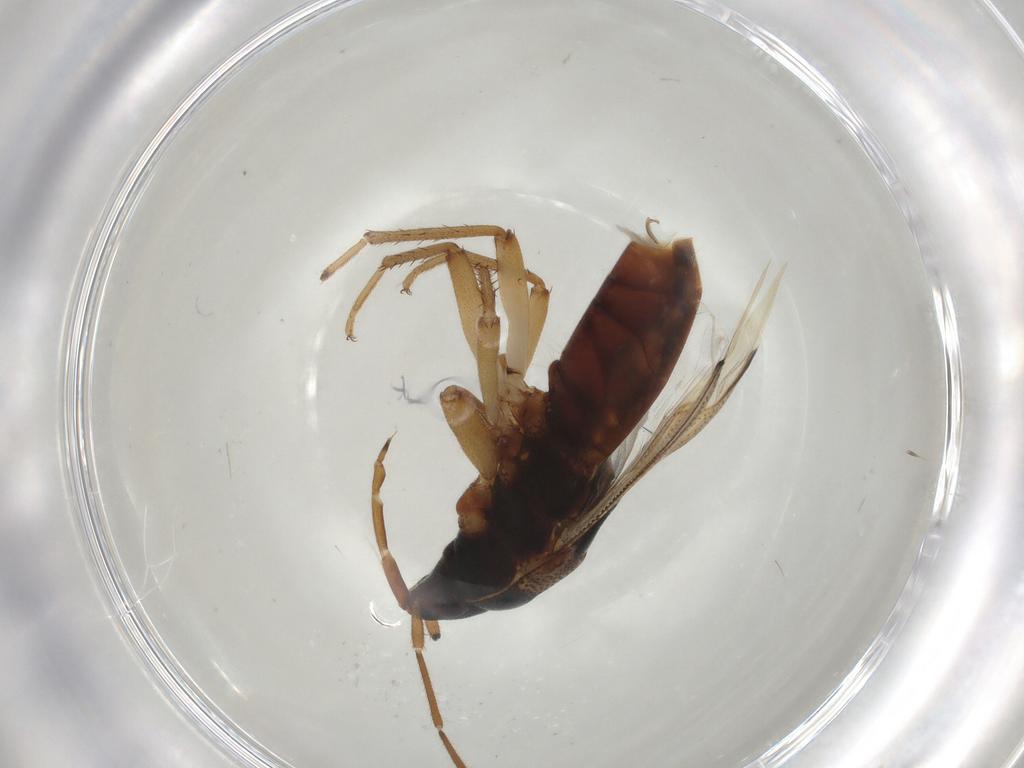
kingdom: Animalia
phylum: Arthropoda
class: Insecta
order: Hemiptera
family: Rhyparochromidae
